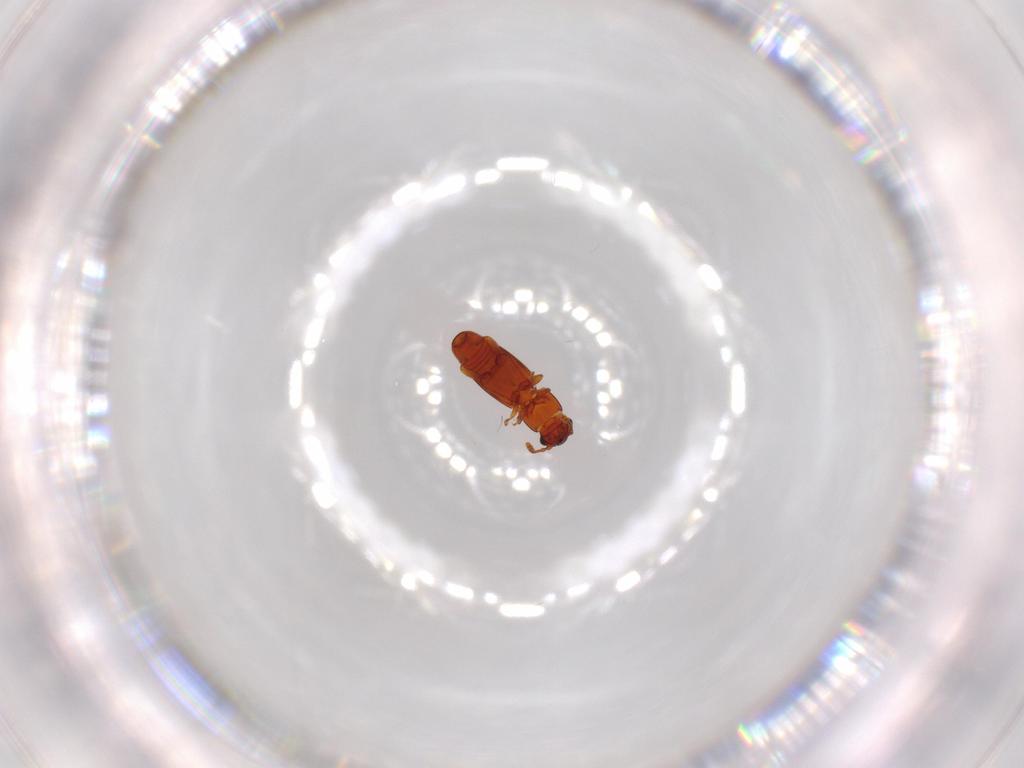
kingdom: Animalia
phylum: Arthropoda
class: Insecta
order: Coleoptera
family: Smicripidae
